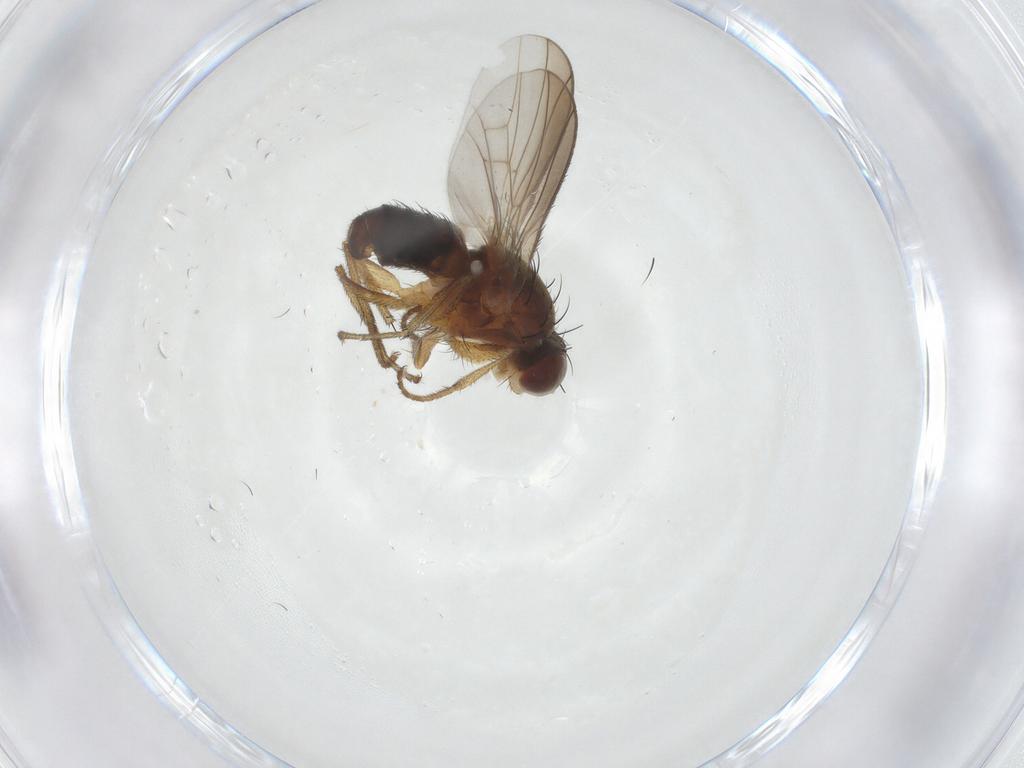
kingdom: Animalia
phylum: Arthropoda
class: Insecta
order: Diptera
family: Heleomyzidae
